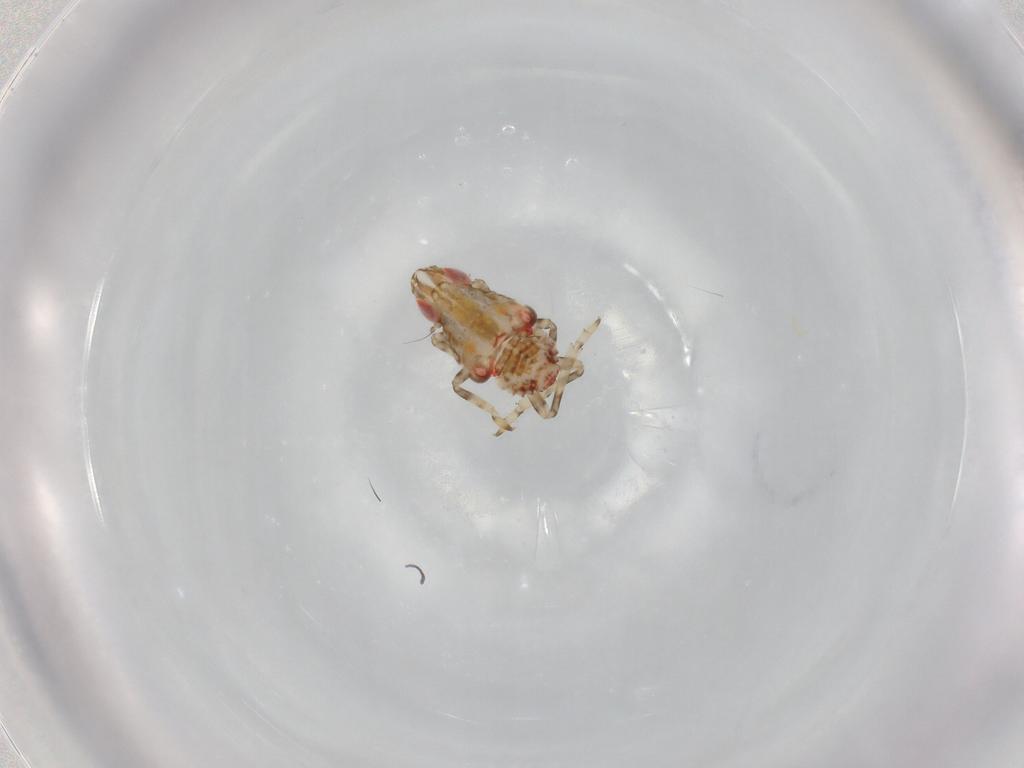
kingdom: Animalia
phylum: Arthropoda
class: Insecta
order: Hemiptera
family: Tropiduchidae
